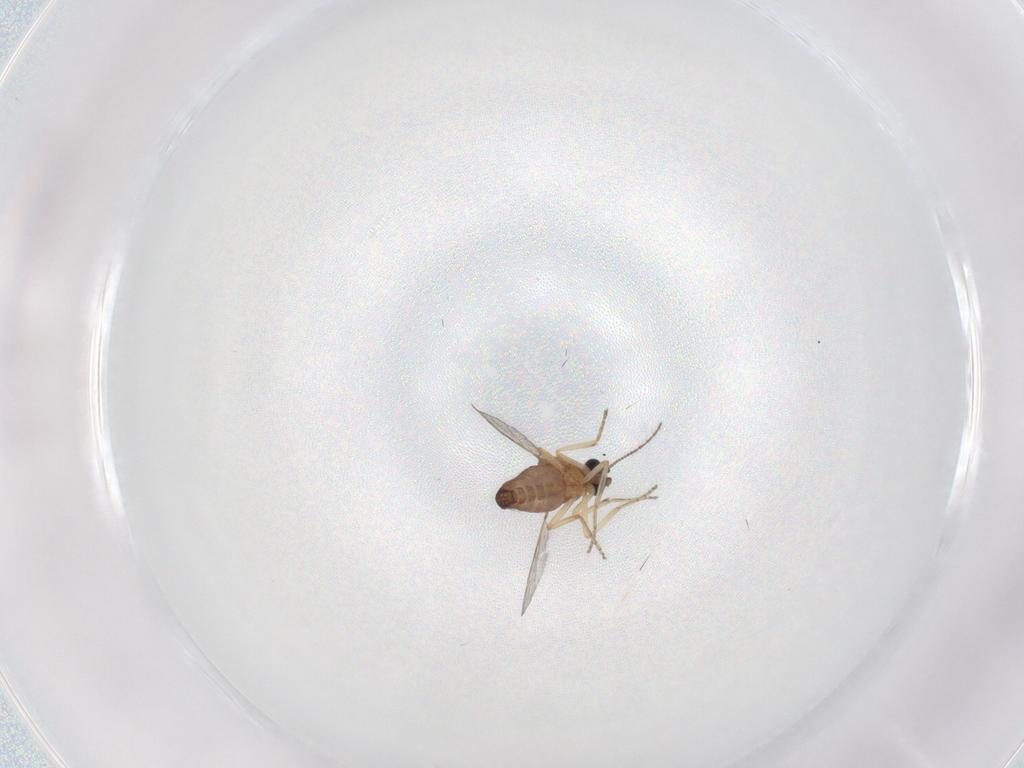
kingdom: Animalia
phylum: Arthropoda
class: Insecta
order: Diptera
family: Ceratopogonidae
